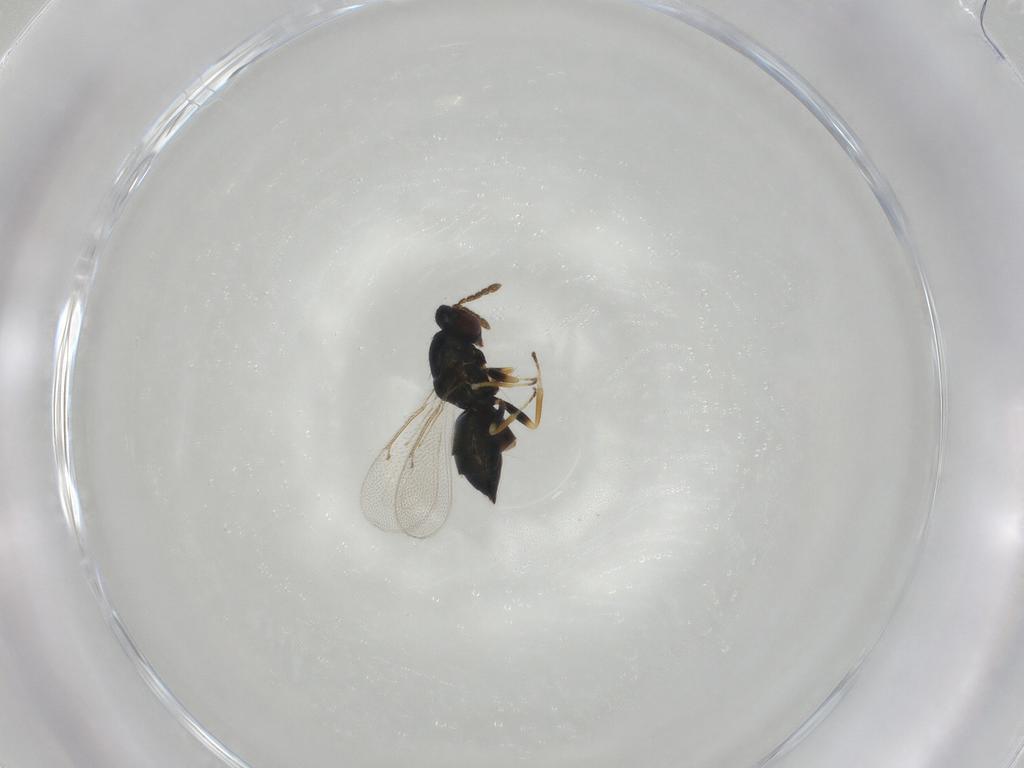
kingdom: Animalia
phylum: Arthropoda
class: Insecta
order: Hymenoptera
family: Eulophidae
